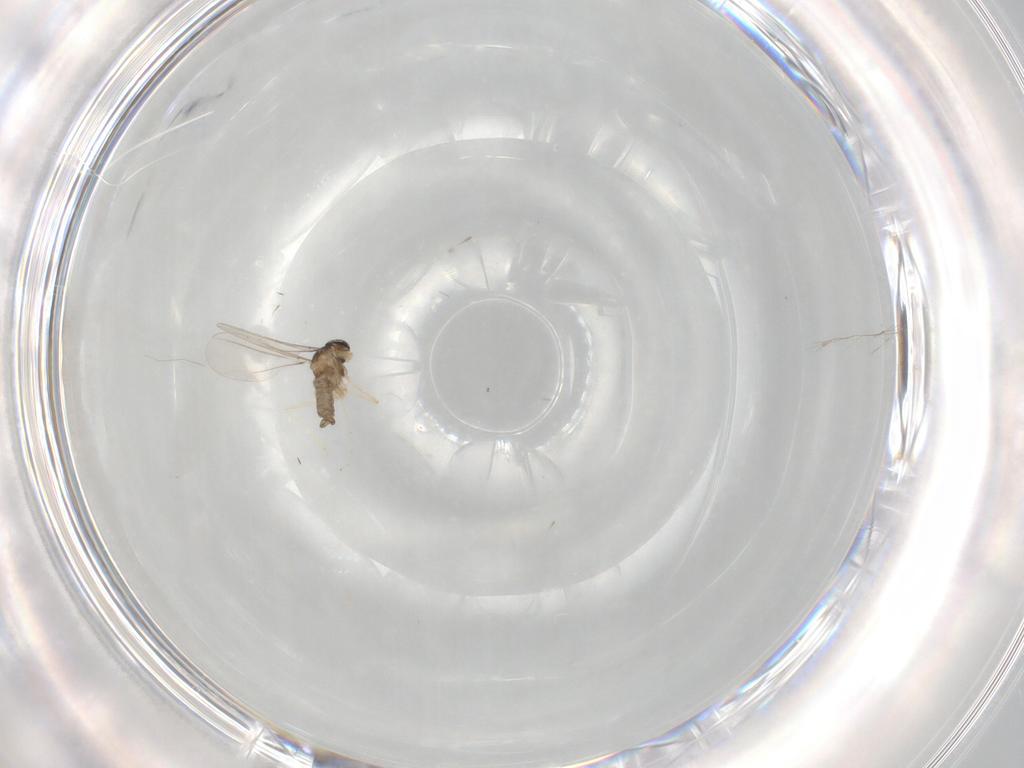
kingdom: Animalia
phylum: Arthropoda
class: Insecta
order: Diptera
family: Cecidomyiidae
